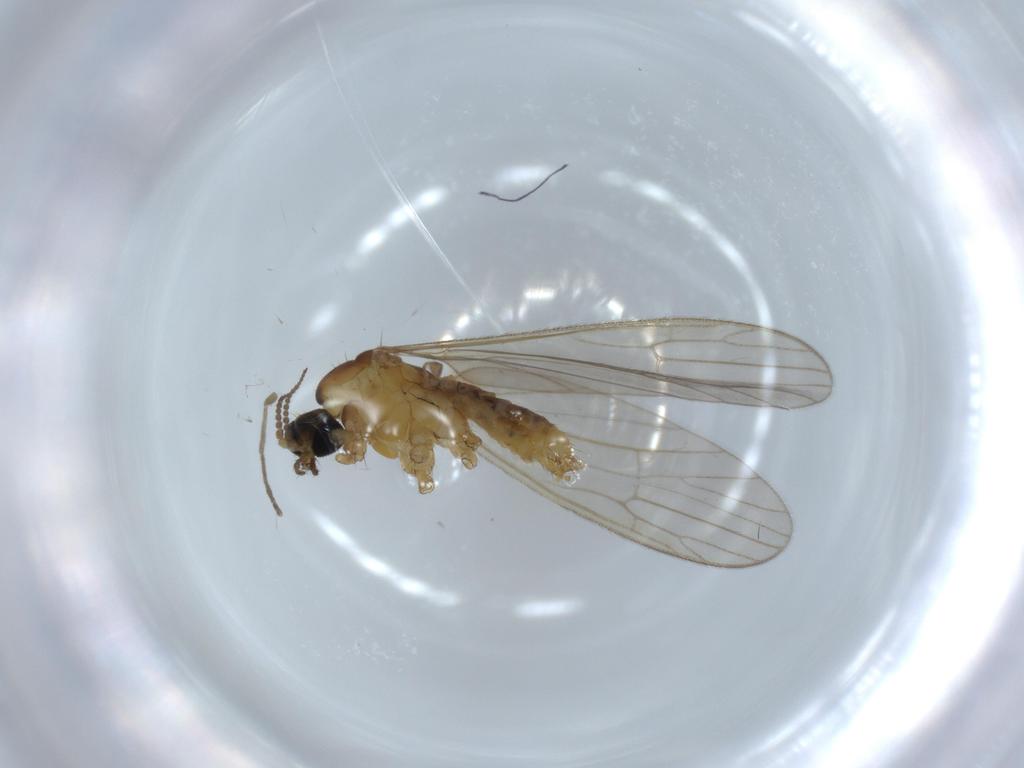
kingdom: Animalia
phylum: Arthropoda
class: Insecta
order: Diptera
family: Limoniidae
